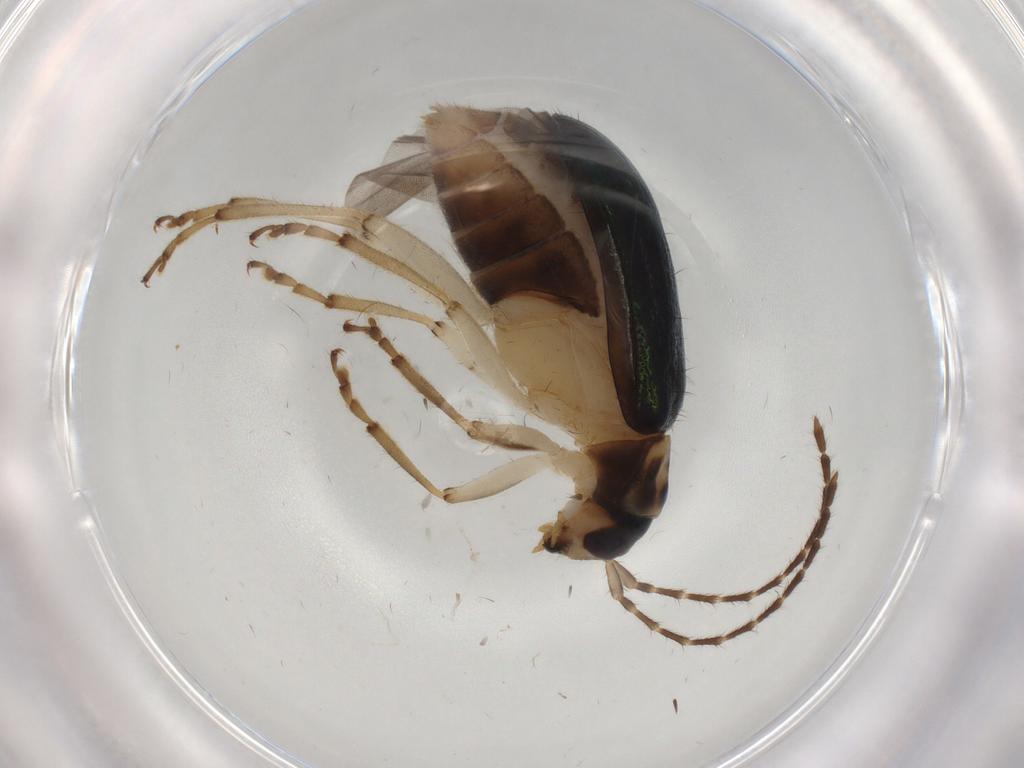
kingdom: Animalia
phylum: Arthropoda
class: Insecta
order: Coleoptera
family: Chrysomelidae
